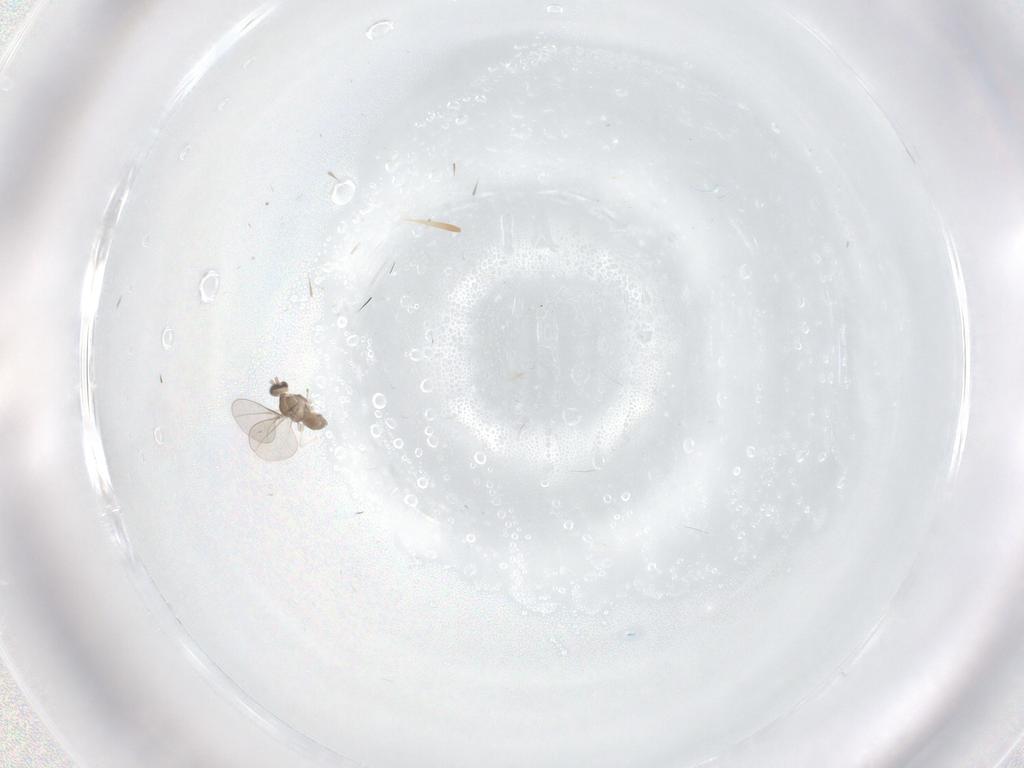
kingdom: Animalia
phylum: Arthropoda
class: Insecta
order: Diptera
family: Cecidomyiidae
